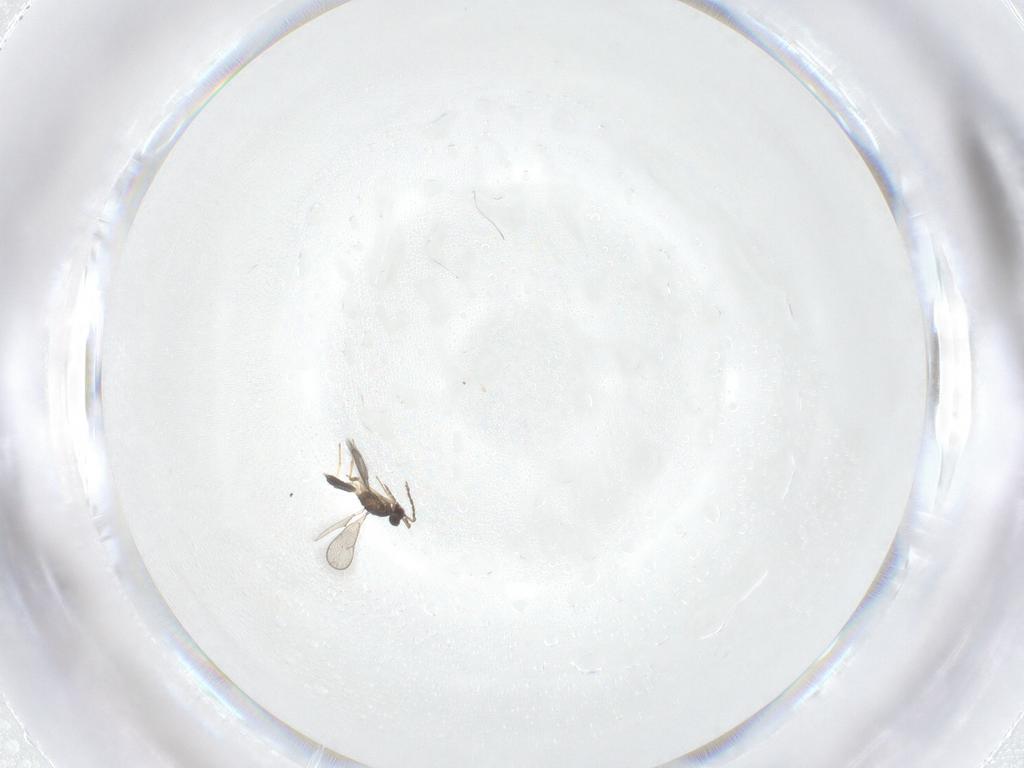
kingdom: Animalia
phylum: Arthropoda
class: Insecta
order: Hymenoptera
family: Eulophidae
